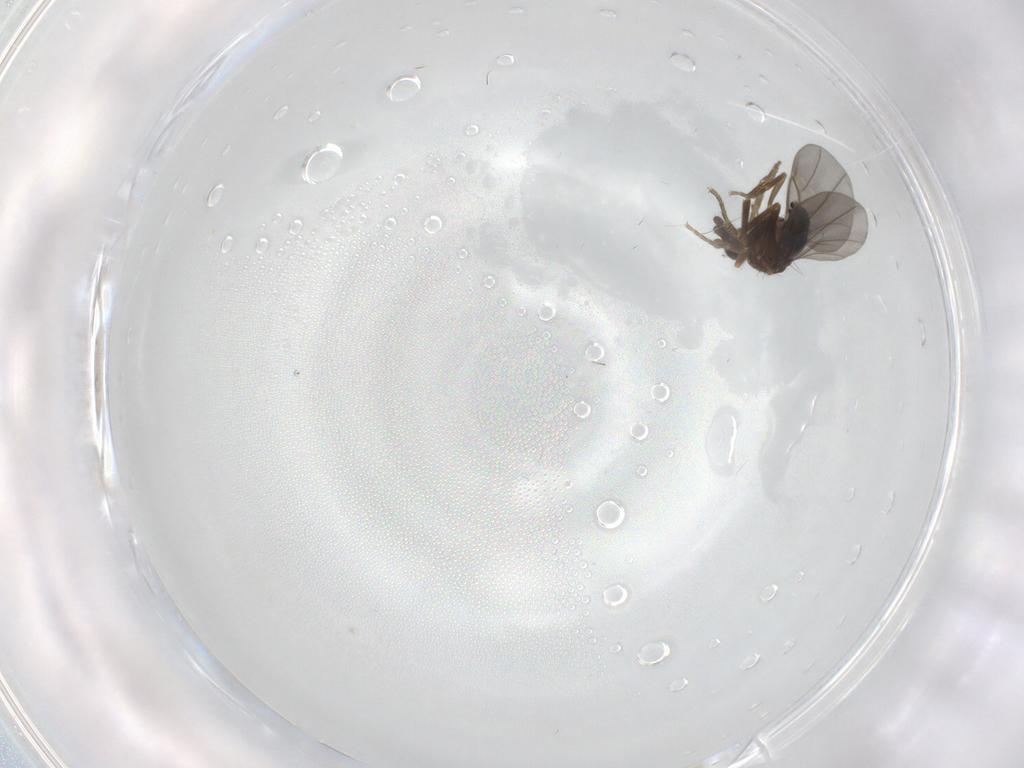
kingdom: Animalia
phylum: Arthropoda
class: Insecta
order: Diptera
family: Phoridae
